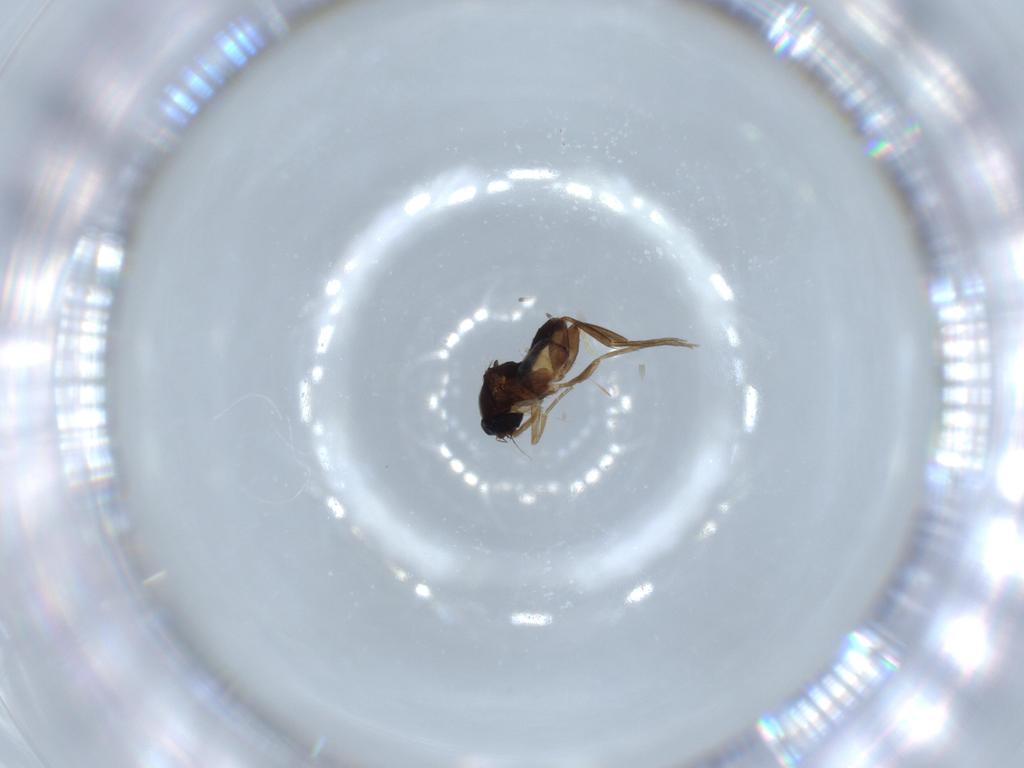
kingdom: Animalia
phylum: Arthropoda
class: Insecta
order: Diptera
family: Phoridae
